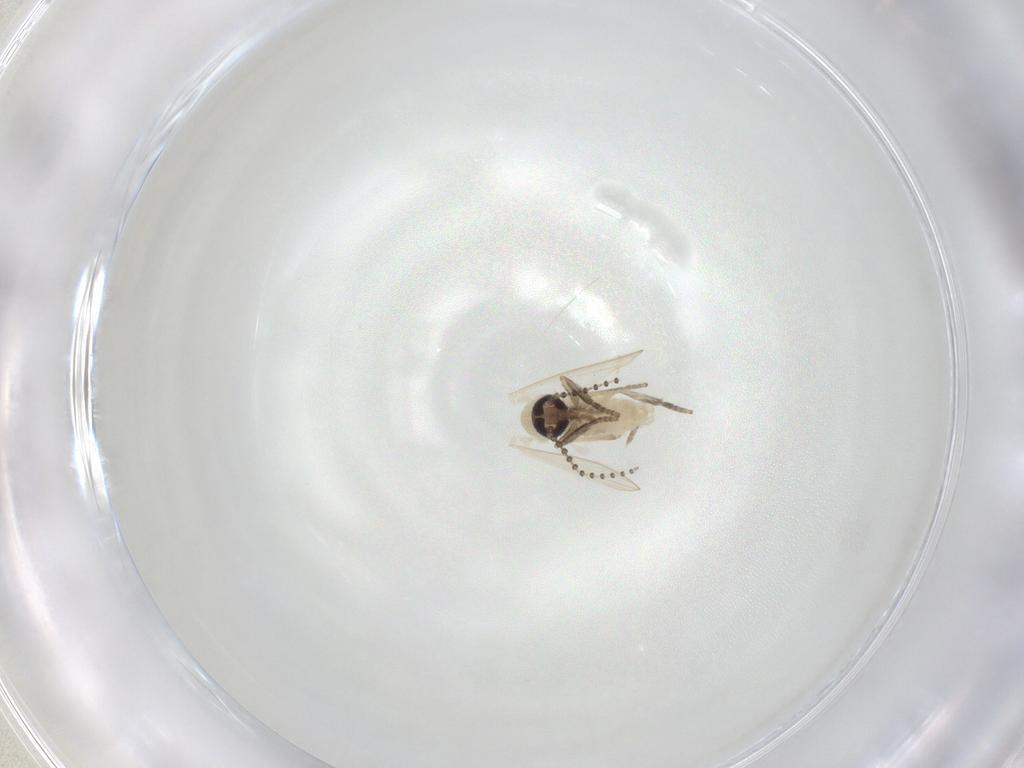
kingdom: Animalia
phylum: Arthropoda
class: Insecta
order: Diptera
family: Psychodidae
